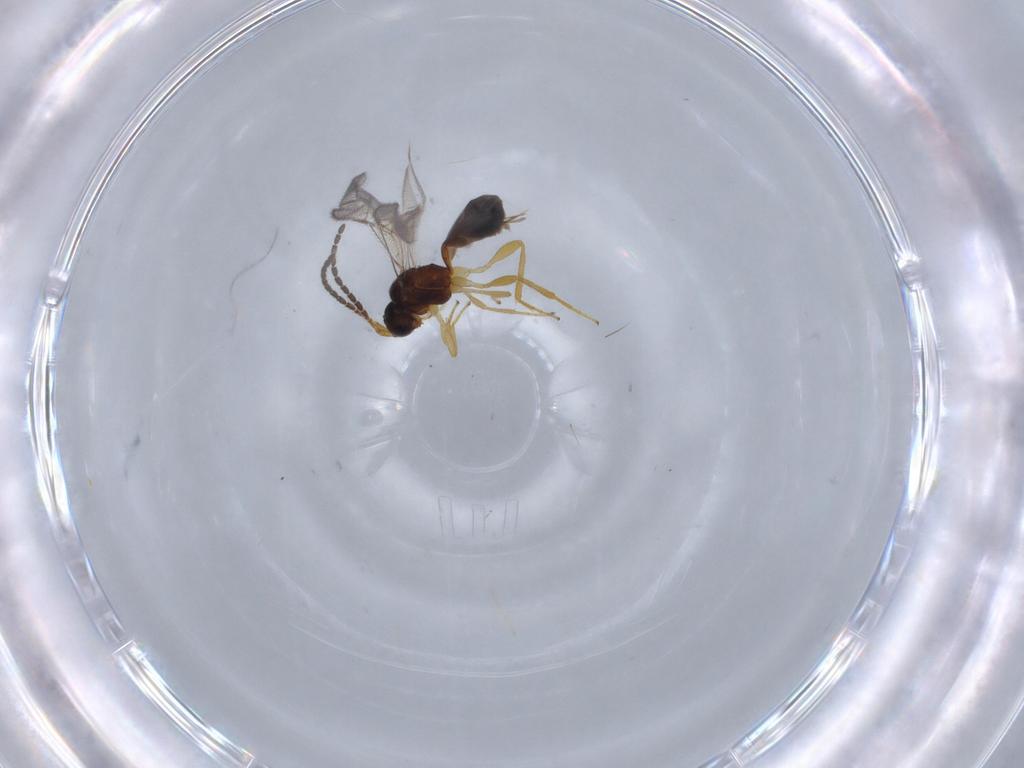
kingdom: Animalia
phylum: Arthropoda
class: Insecta
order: Hymenoptera
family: Braconidae
